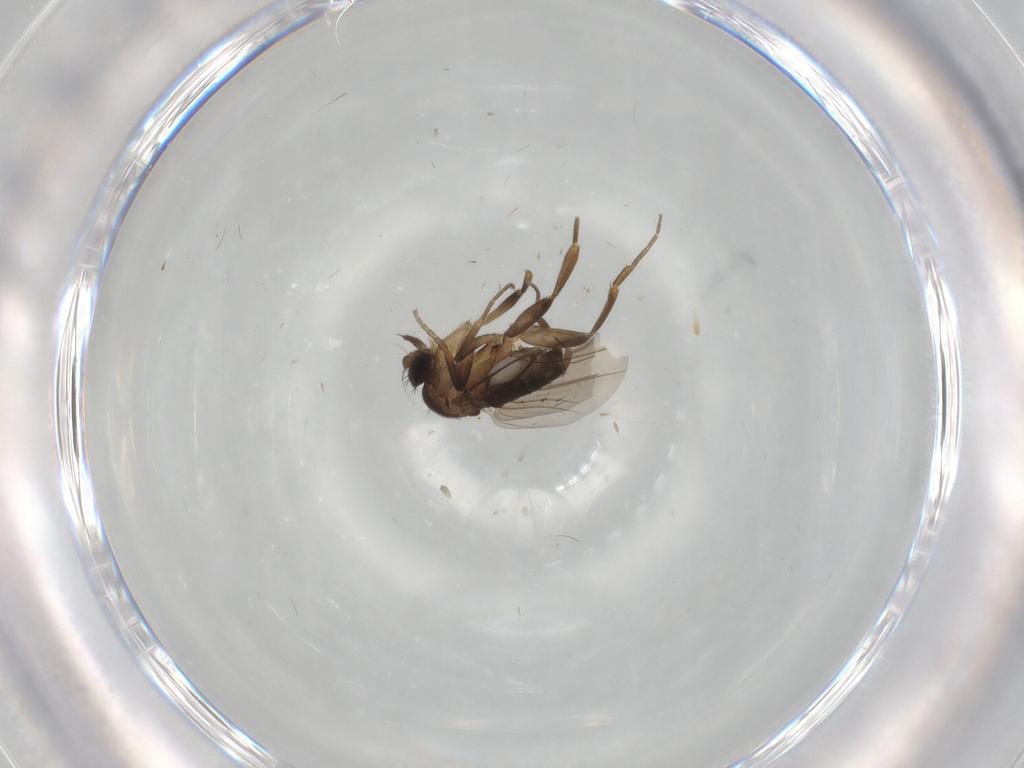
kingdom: Animalia
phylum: Arthropoda
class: Insecta
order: Diptera
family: Phoridae
